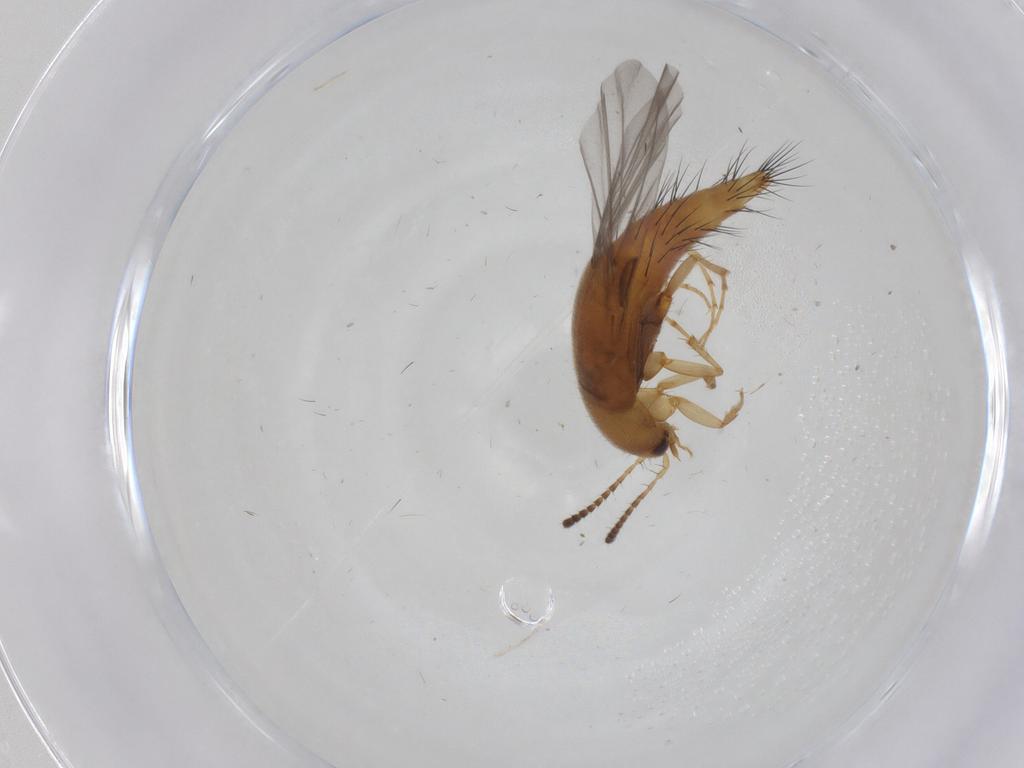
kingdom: Animalia
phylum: Arthropoda
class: Insecta
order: Coleoptera
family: Staphylinidae
